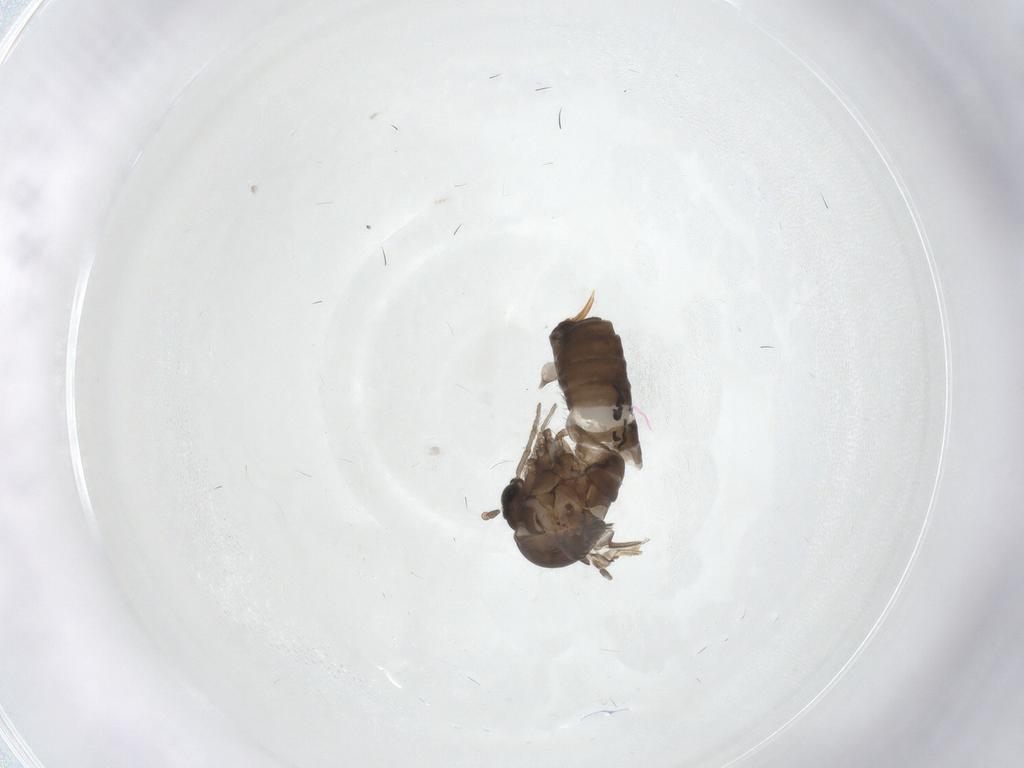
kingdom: Animalia
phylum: Arthropoda
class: Insecta
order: Diptera
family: Psychodidae
